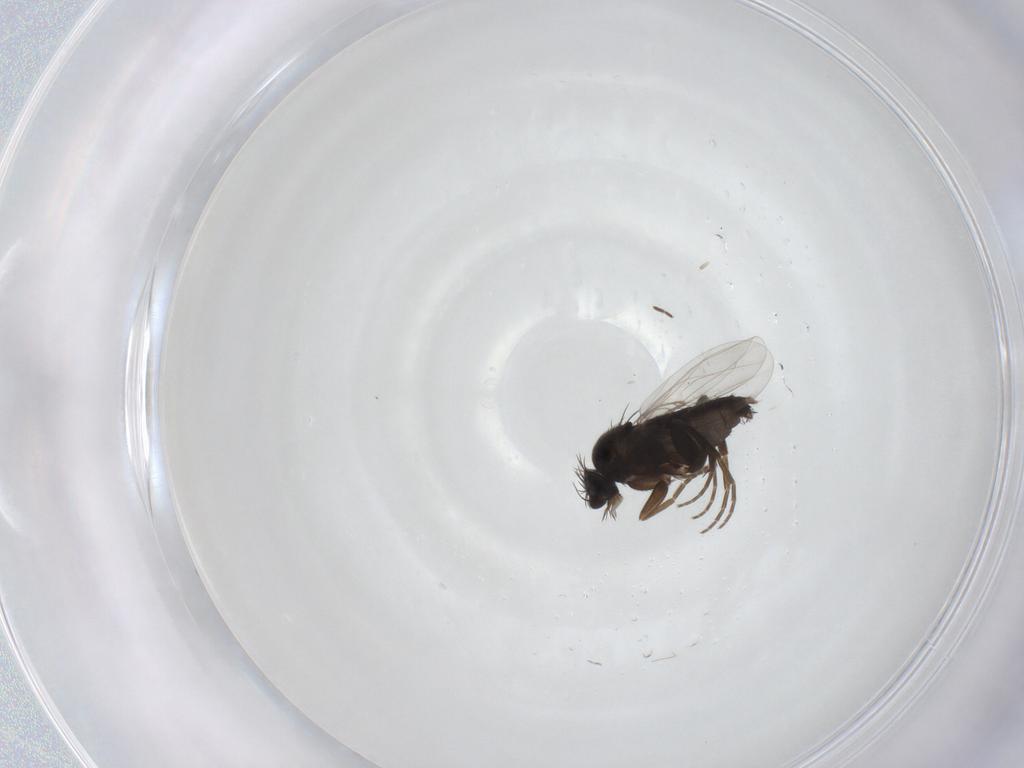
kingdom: Animalia
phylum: Arthropoda
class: Insecta
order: Diptera
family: Phoridae
